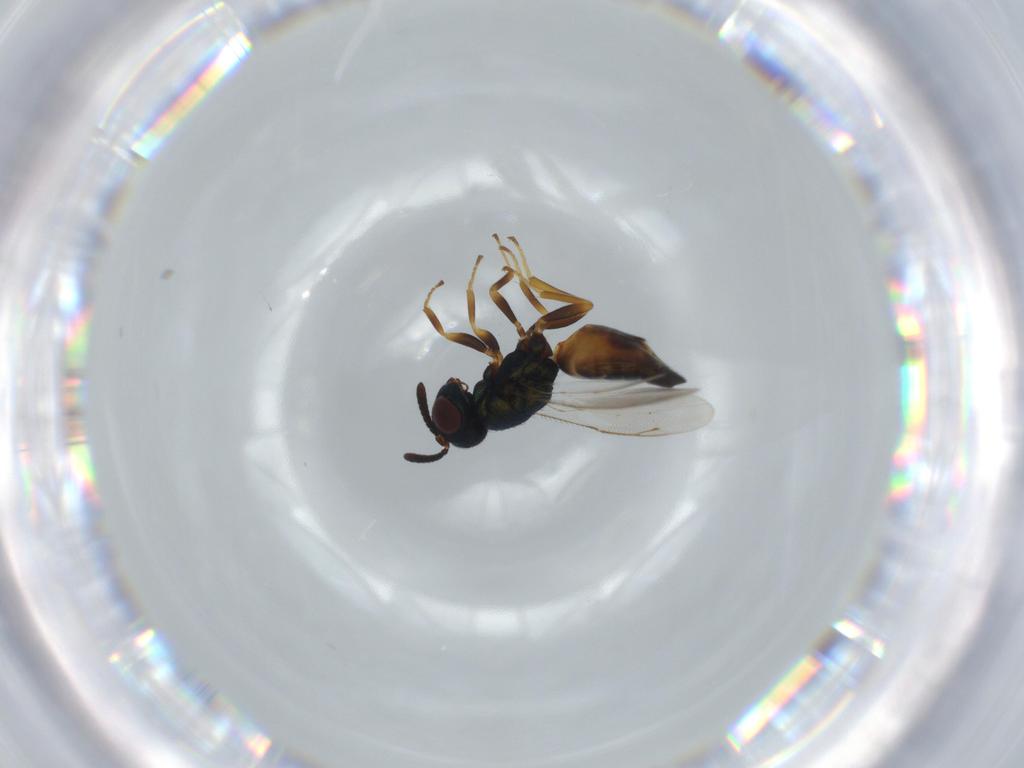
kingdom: Animalia
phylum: Arthropoda
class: Insecta
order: Hymenoptera
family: Pteromalidae
